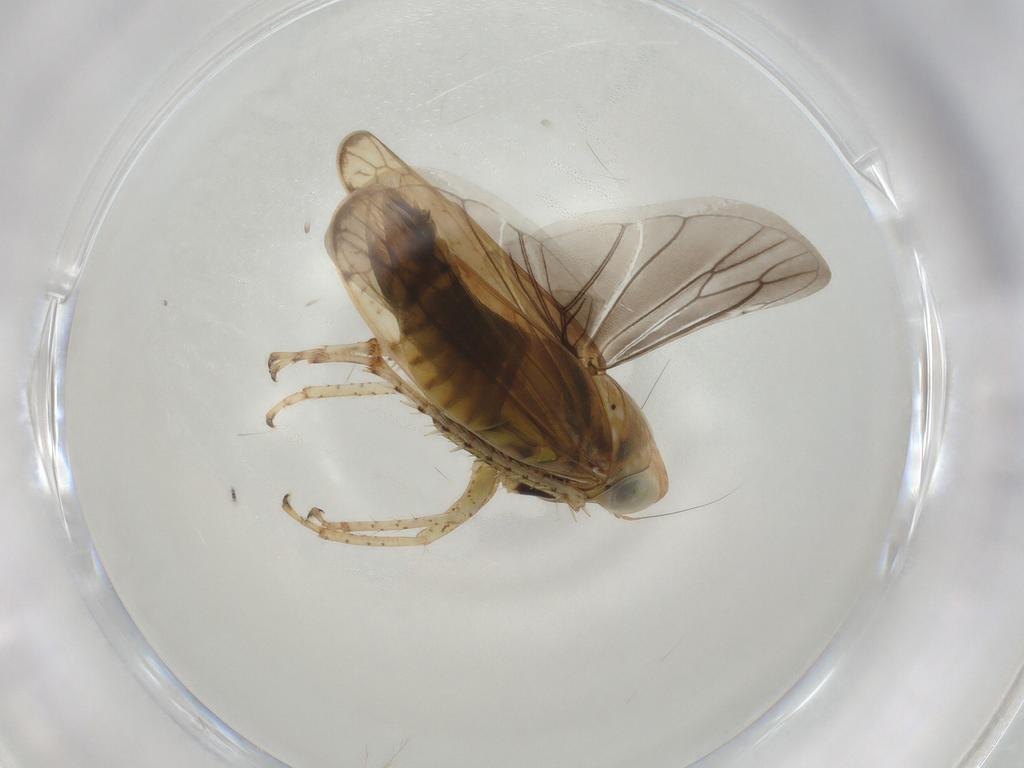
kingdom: Animalia
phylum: Arthropoda
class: Insecta
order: Hemiptera
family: Cicadellidae
